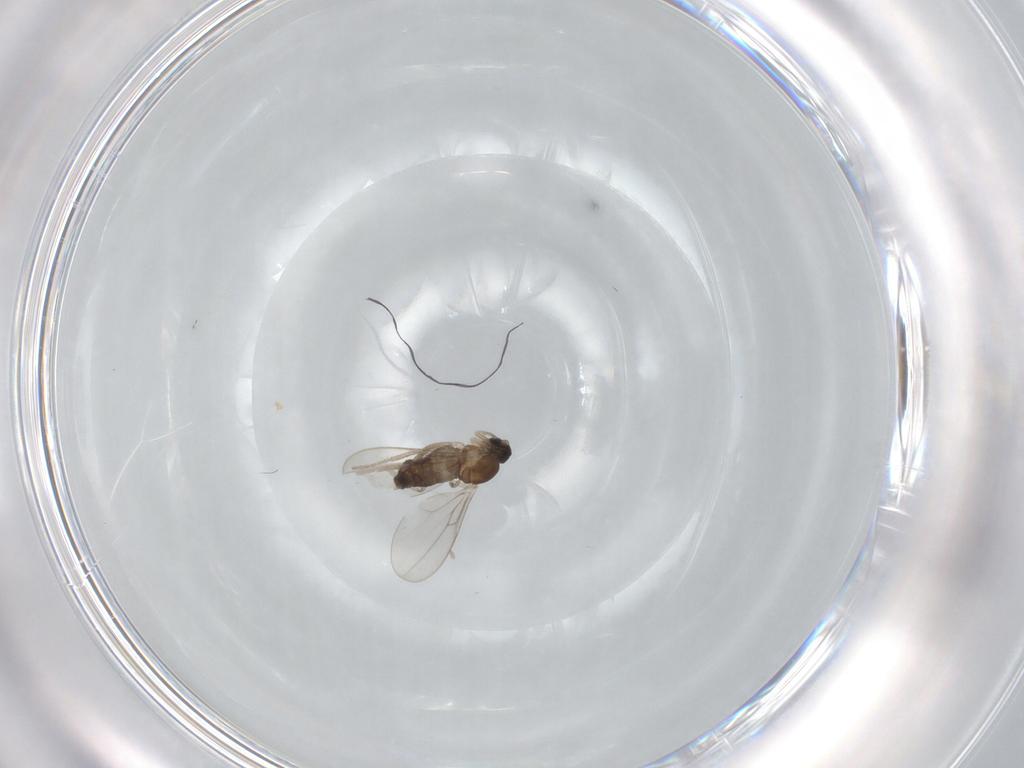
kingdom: Animalia
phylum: Arthropoda
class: Insecta
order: Diptera
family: Cecidomyiidae
